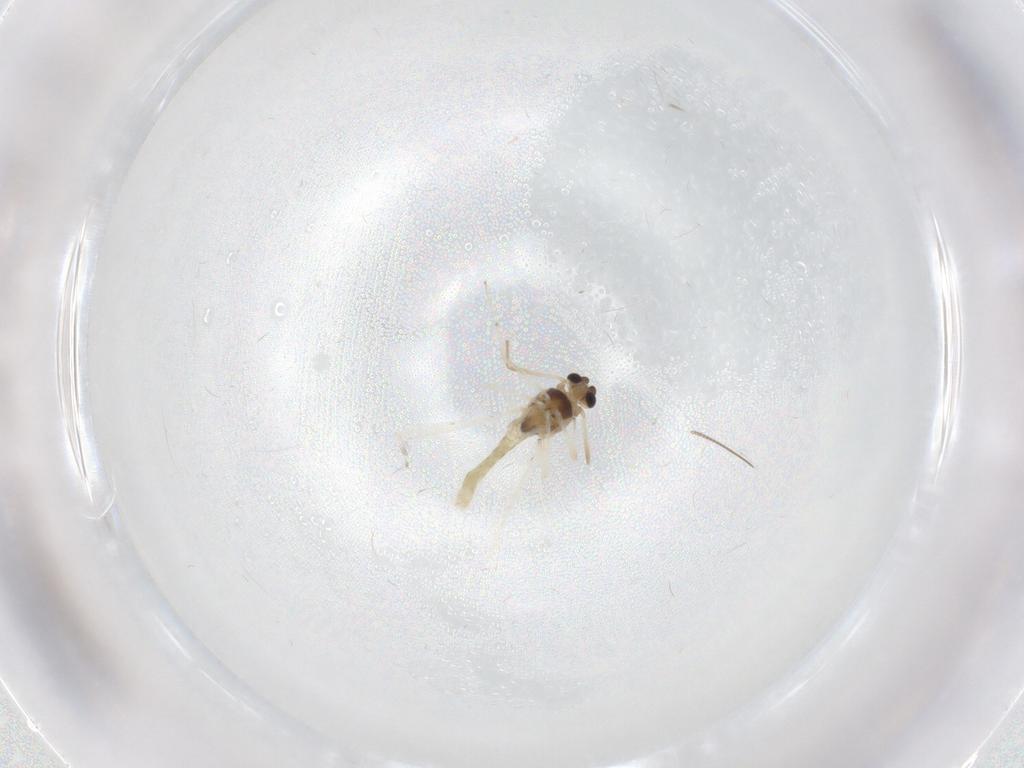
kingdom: Animalia
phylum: Arthropoda
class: Insecta
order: Diptera
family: Chironomidae
